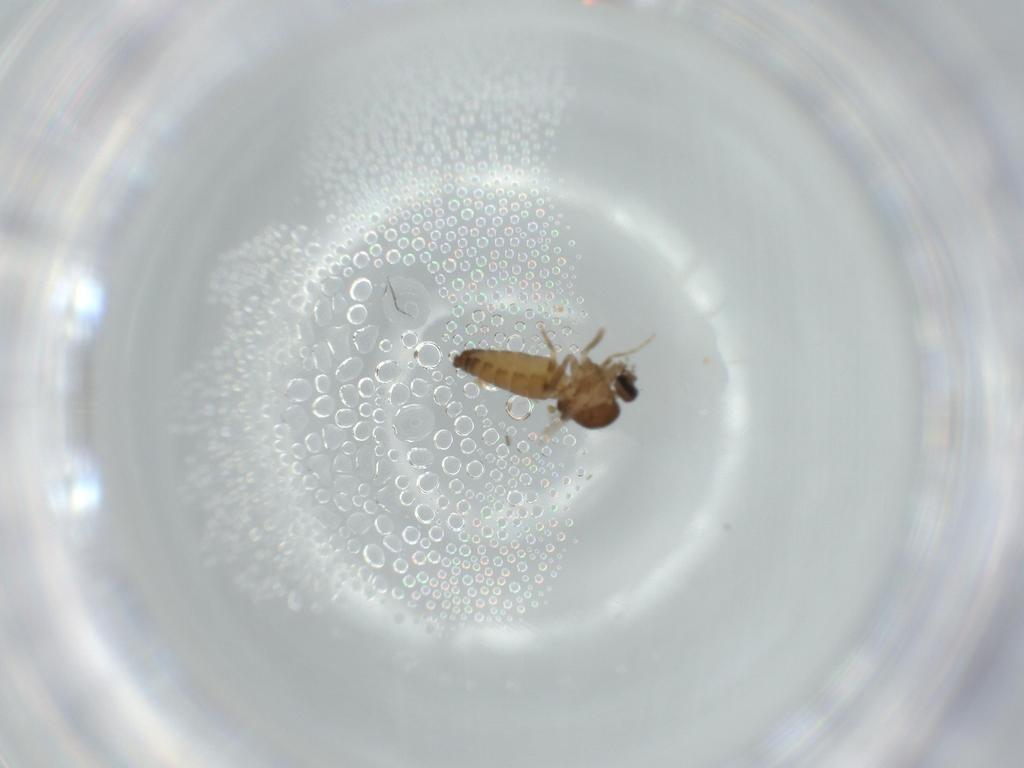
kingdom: Animalia
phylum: Arthropoda
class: Insecta
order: Diptera
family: Ceratopogonidae
